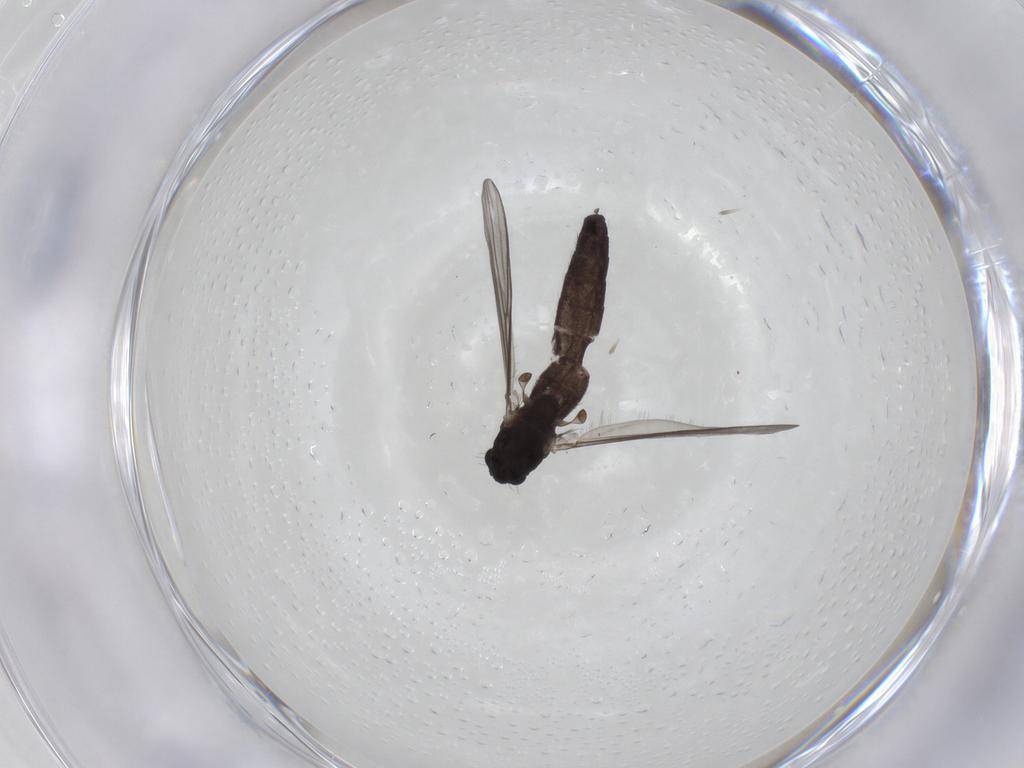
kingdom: Animalia
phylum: Arthropoda
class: Insecta
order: Diptera
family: Chironomidae
